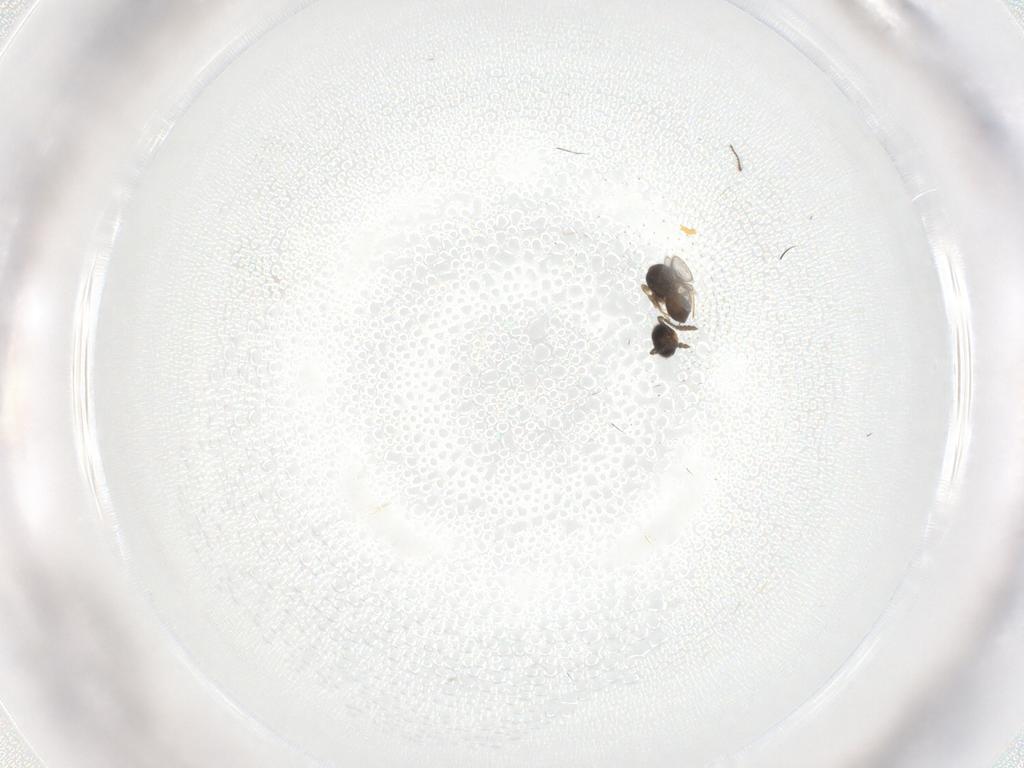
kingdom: Animalia
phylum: Arthropoda
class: Insecta
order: Hymenoptera
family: Scelionidae
